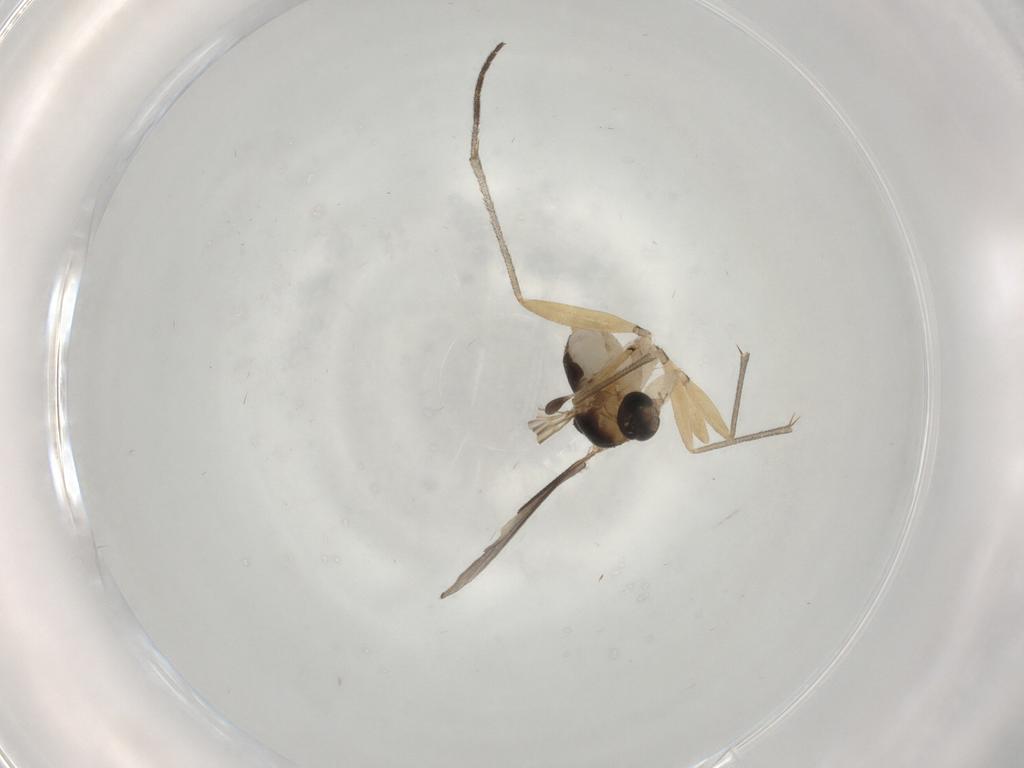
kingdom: Animalia
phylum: Arthropoda
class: Insecta
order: Diptera
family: Sciaridae
